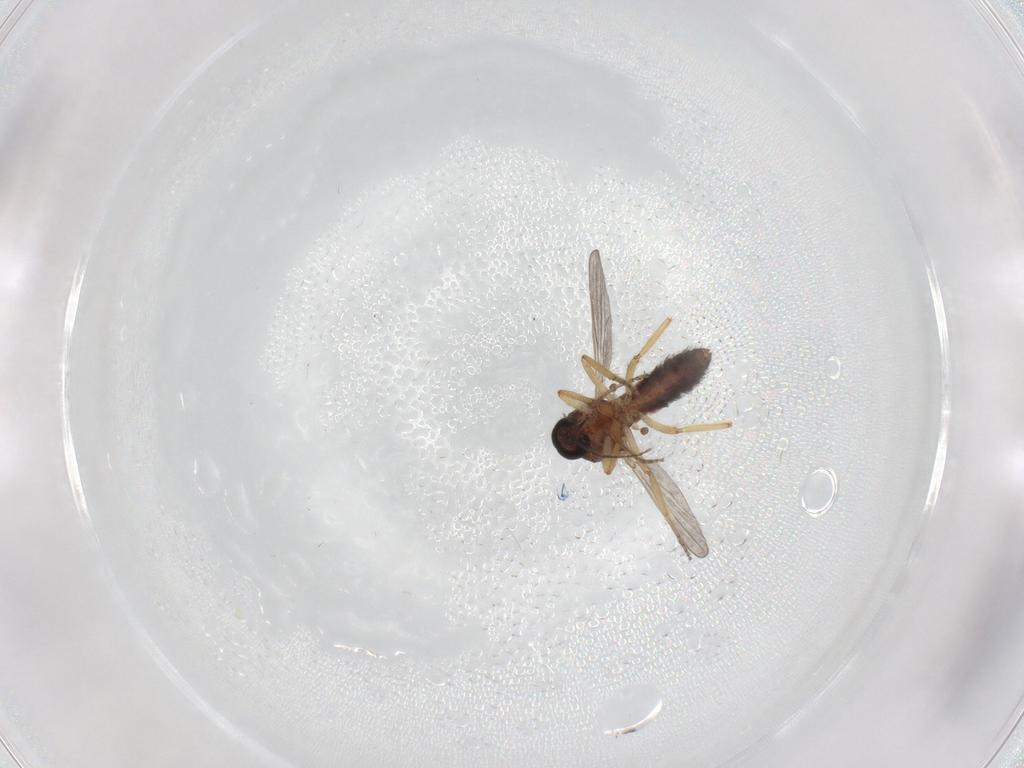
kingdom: Animalia
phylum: Arthropoda
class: Insecta
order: Diptera
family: Ceratopogonidae
